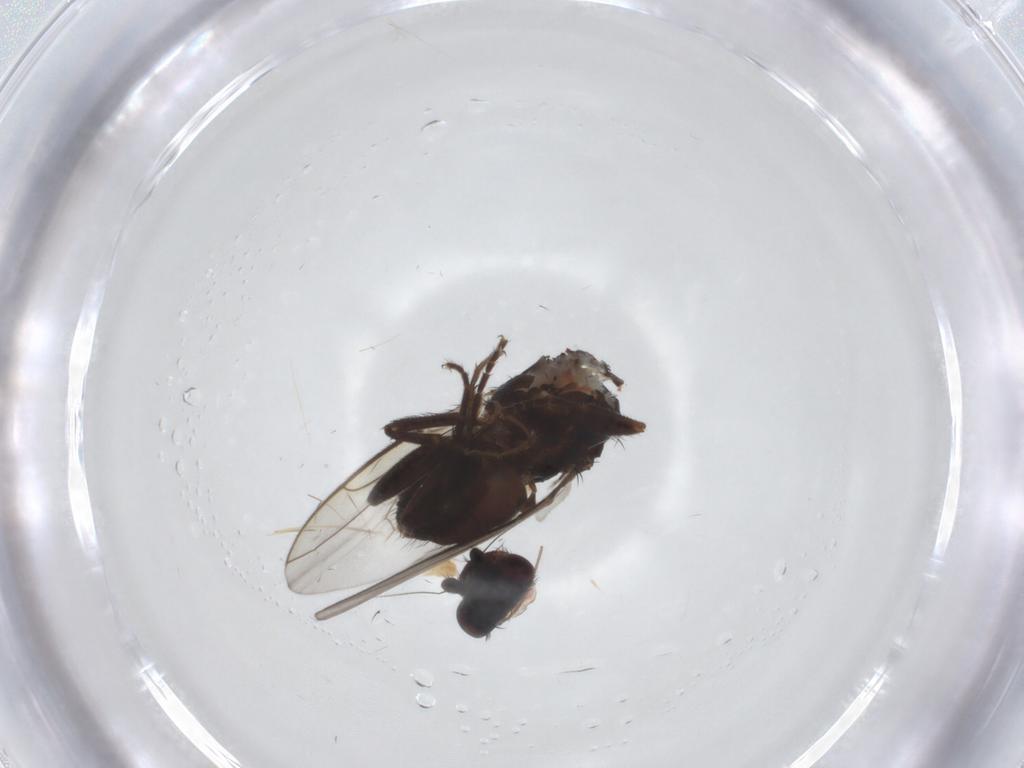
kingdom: Animalia
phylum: Arthropoda
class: Insecta
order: Diptera
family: Sphaeroceridae
